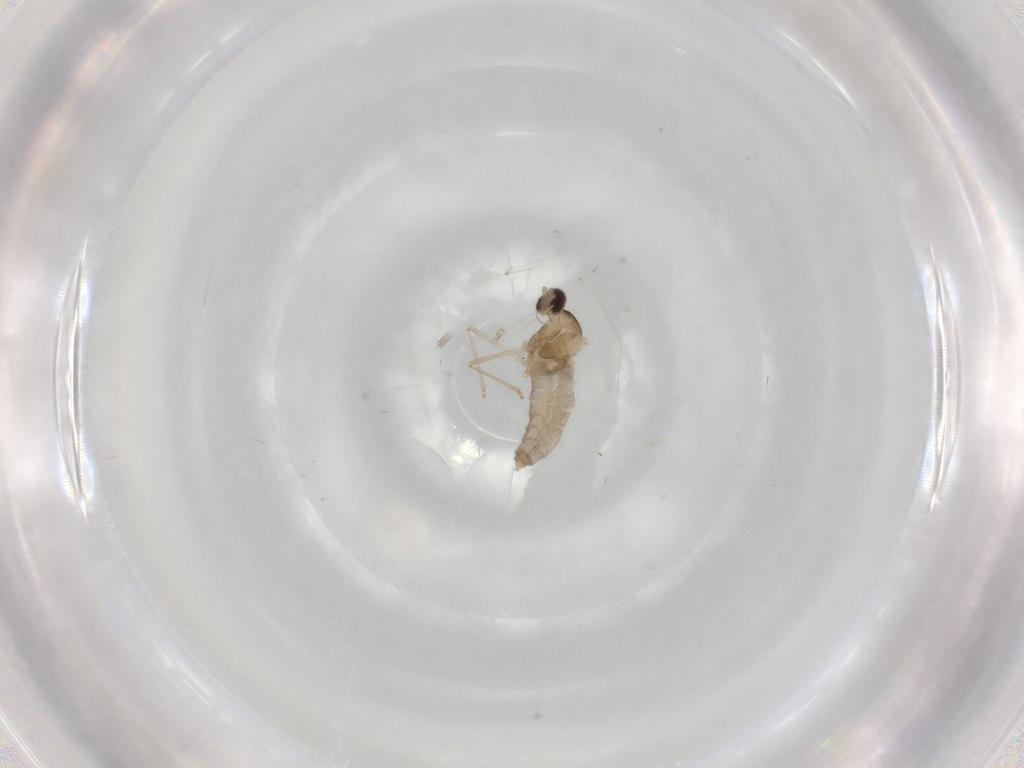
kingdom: Animalia
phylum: Arthropoda
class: Insecta
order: Diptera
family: Cecidomyiidae
